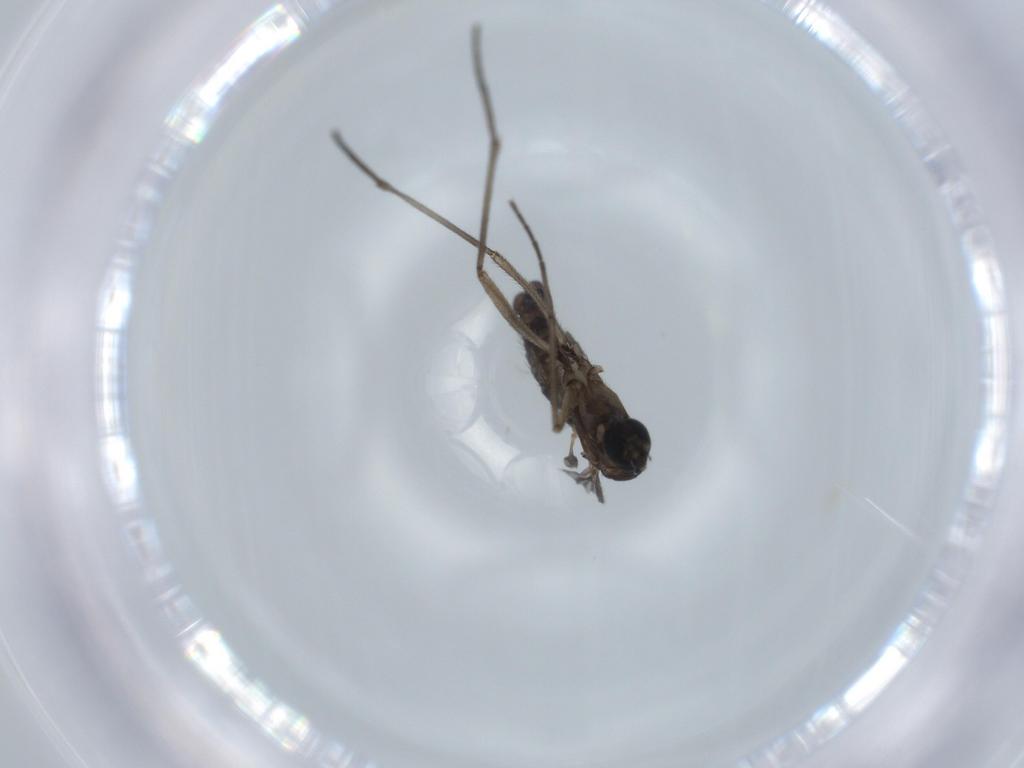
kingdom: Animalia
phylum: Arthropoda
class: Insecta
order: Diptera
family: Sciaridae
